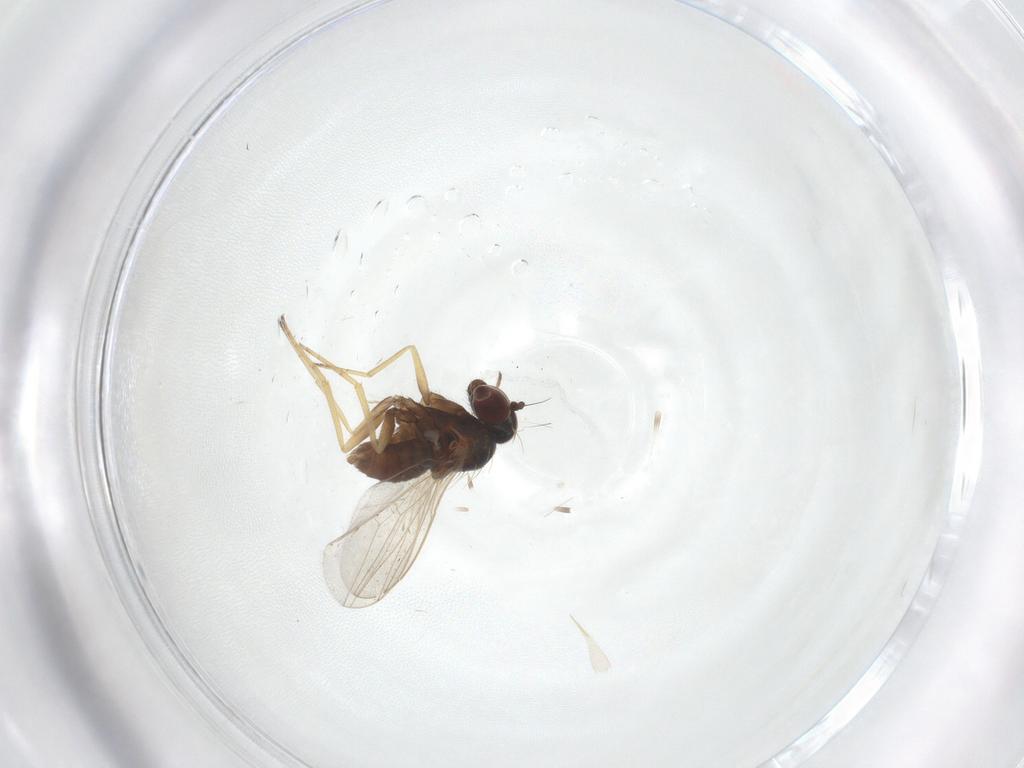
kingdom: Animalia
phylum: Arthropoda
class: Insecta
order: Diptera
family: Dolichopodidae
